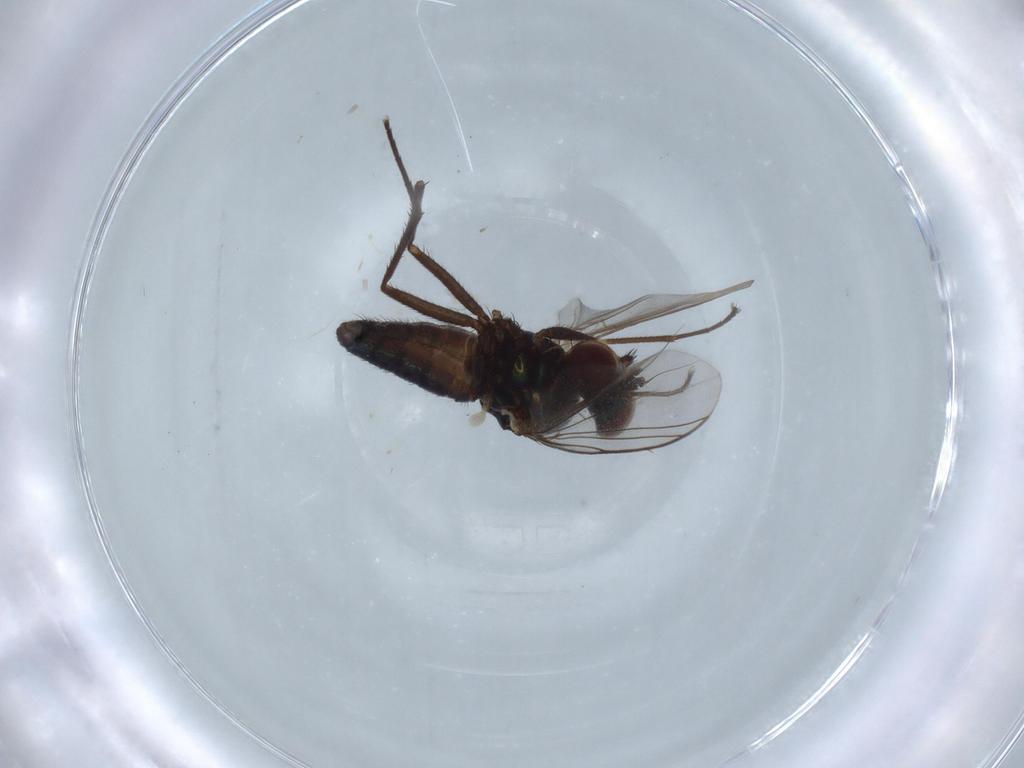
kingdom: Animalia
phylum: Arthropoda
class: Insecta
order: Diptera
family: Dolichopodidae
